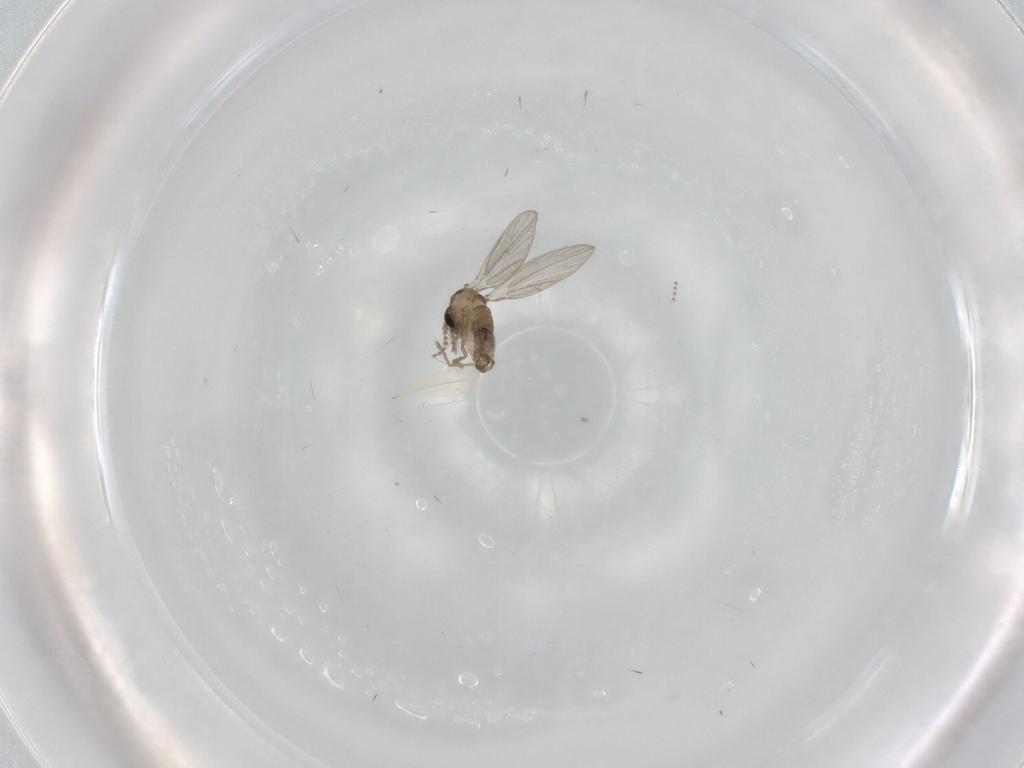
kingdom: Animalia
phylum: Arthropoda
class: Insecta
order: Diptera
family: Psychodidae
